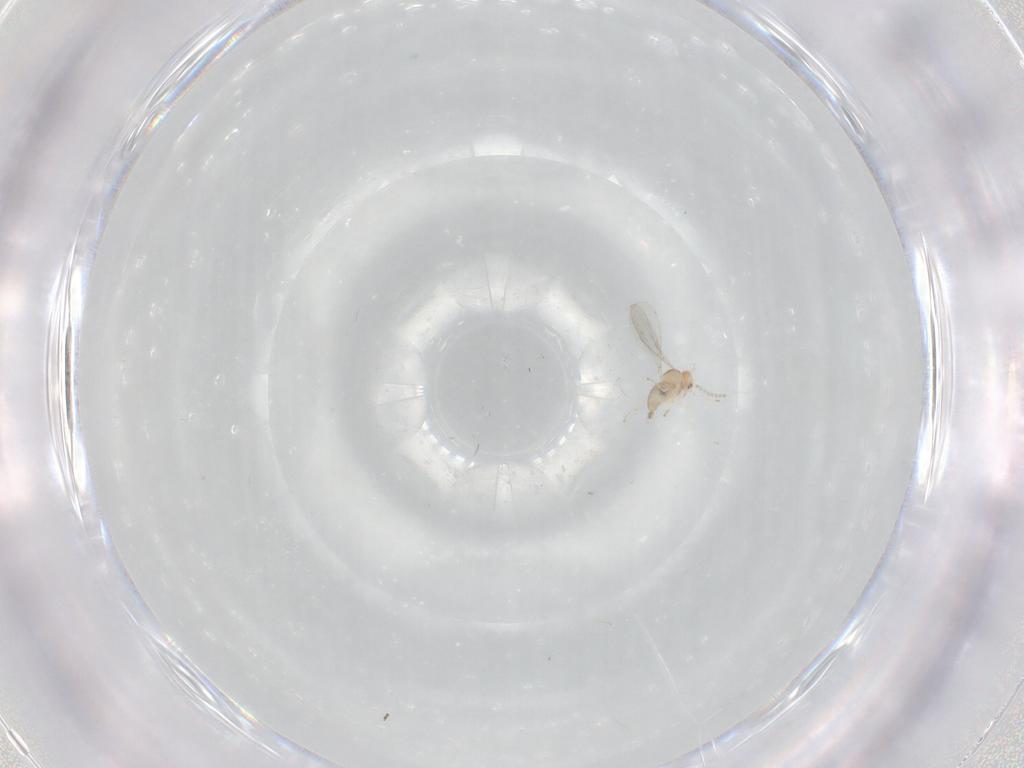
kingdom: Animalia
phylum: Arthropoda
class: Insecta
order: Diptera
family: Cecidomyiidae
